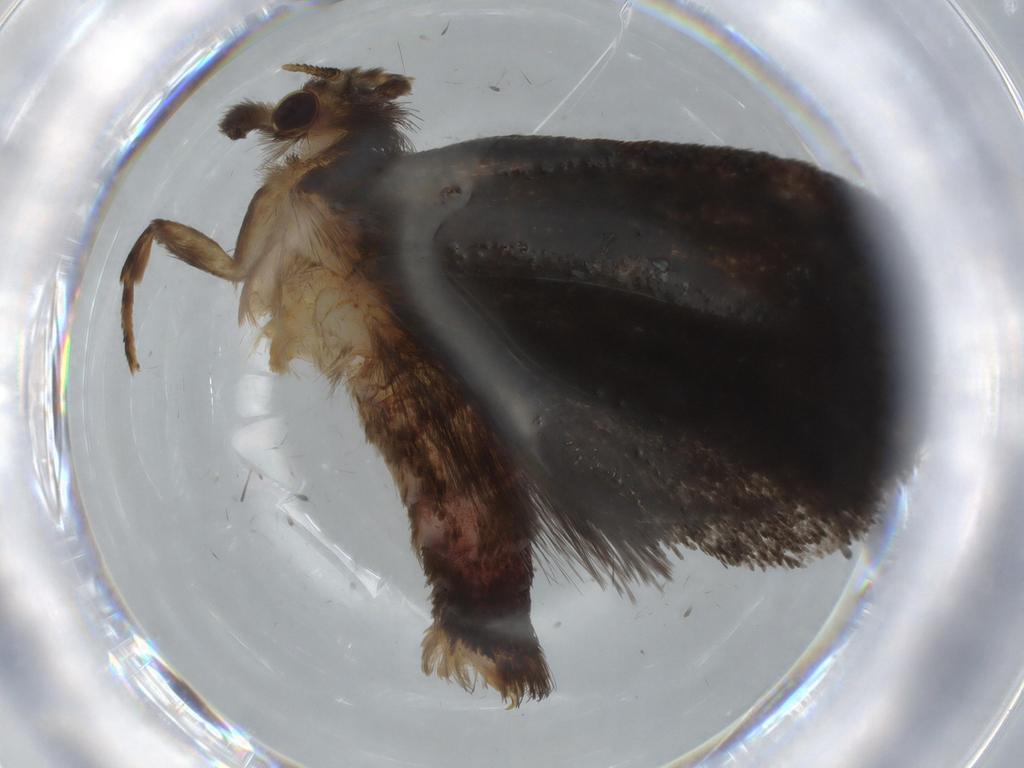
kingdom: Animalia
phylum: Arthropoda
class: Insecta
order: Lepidoptera
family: Tineidae
